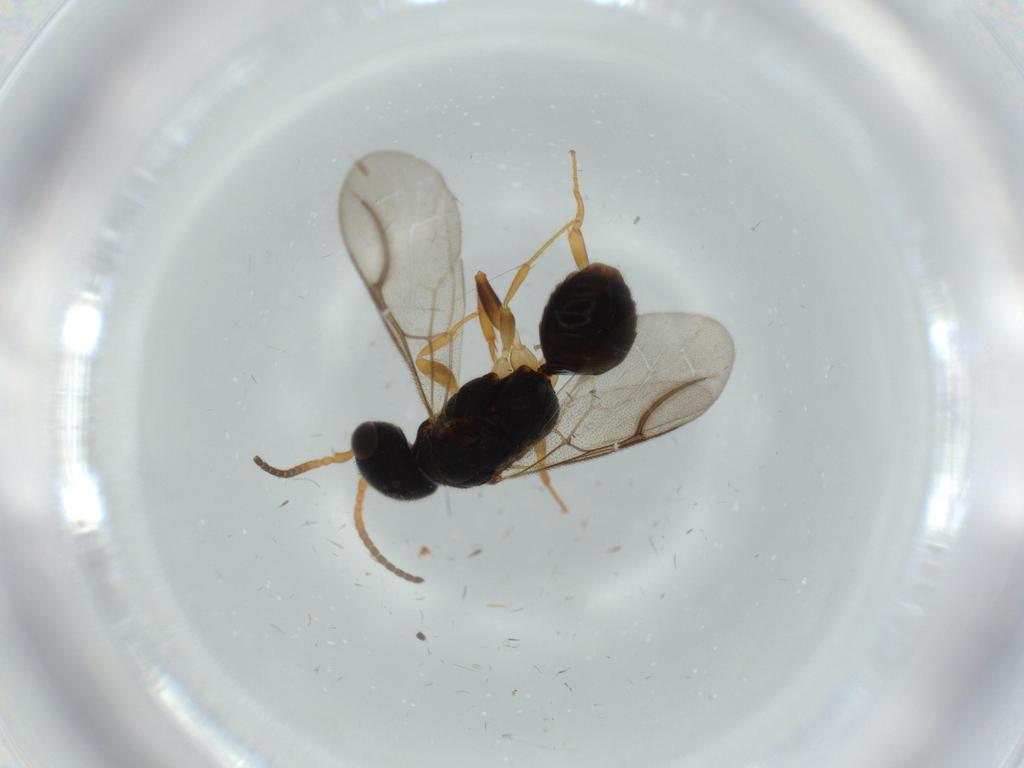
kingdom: Animalia
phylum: Arthropoda
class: Insecta
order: Hymenoptera
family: Bethylidae
